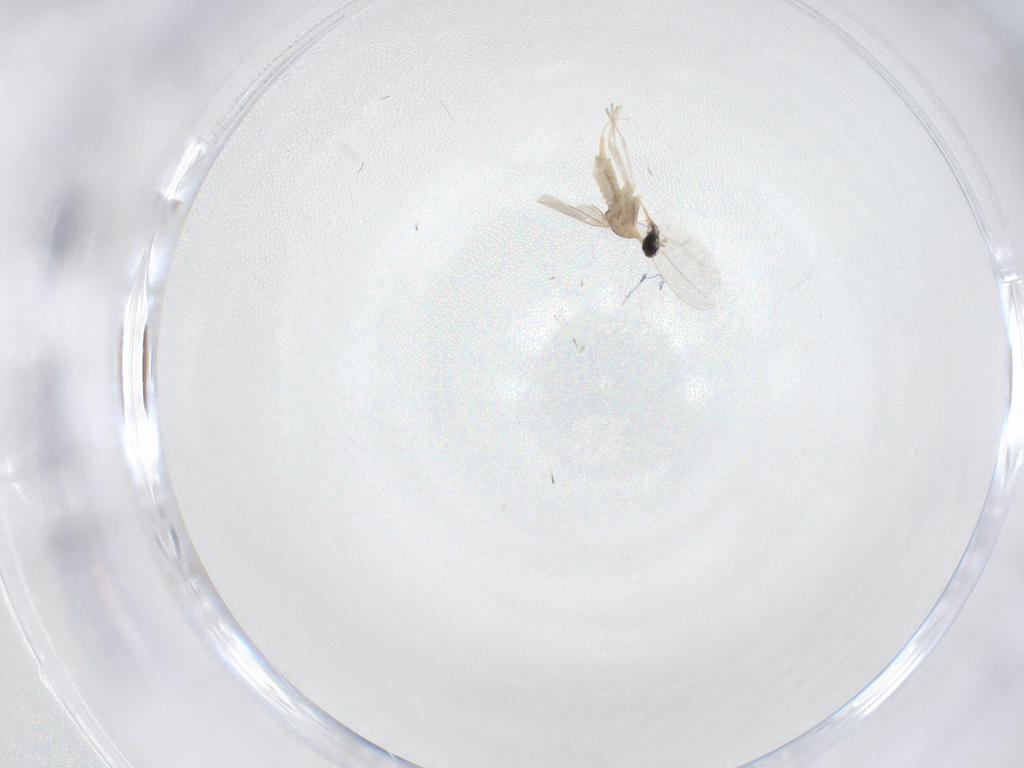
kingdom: Animalia
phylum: Arthropoda
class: Insecta
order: Diptera
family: Cecidomyiidae
